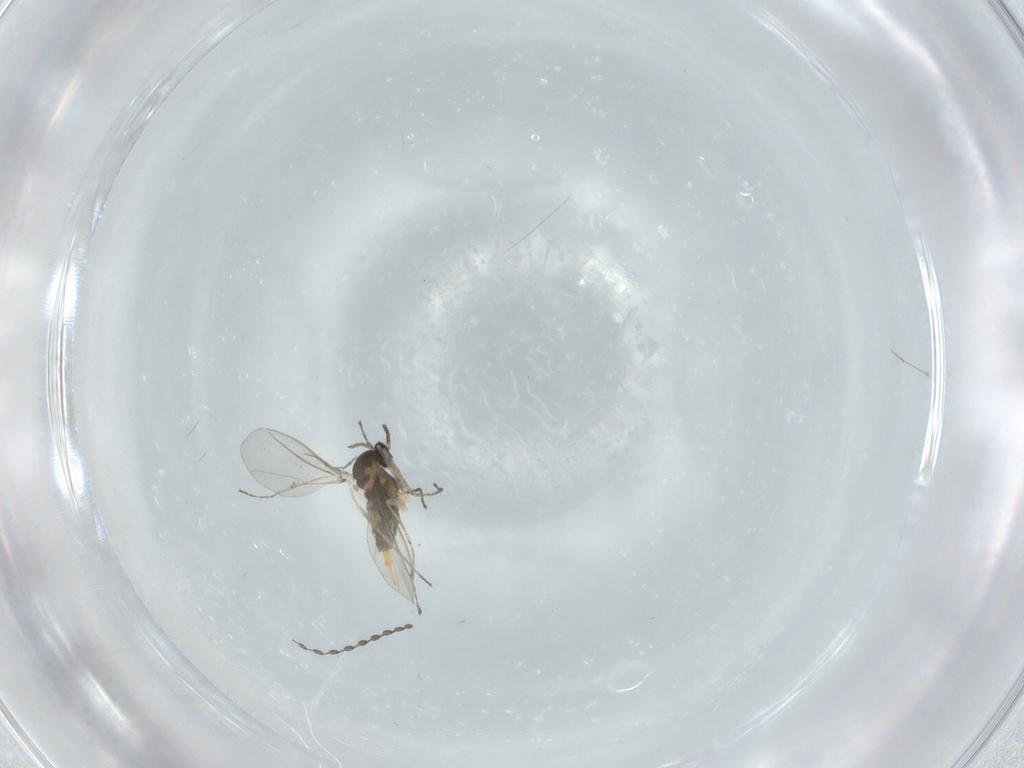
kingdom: Animalia
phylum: Arthropoda
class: Insecta
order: Diptera
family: Cecidomyiidae
